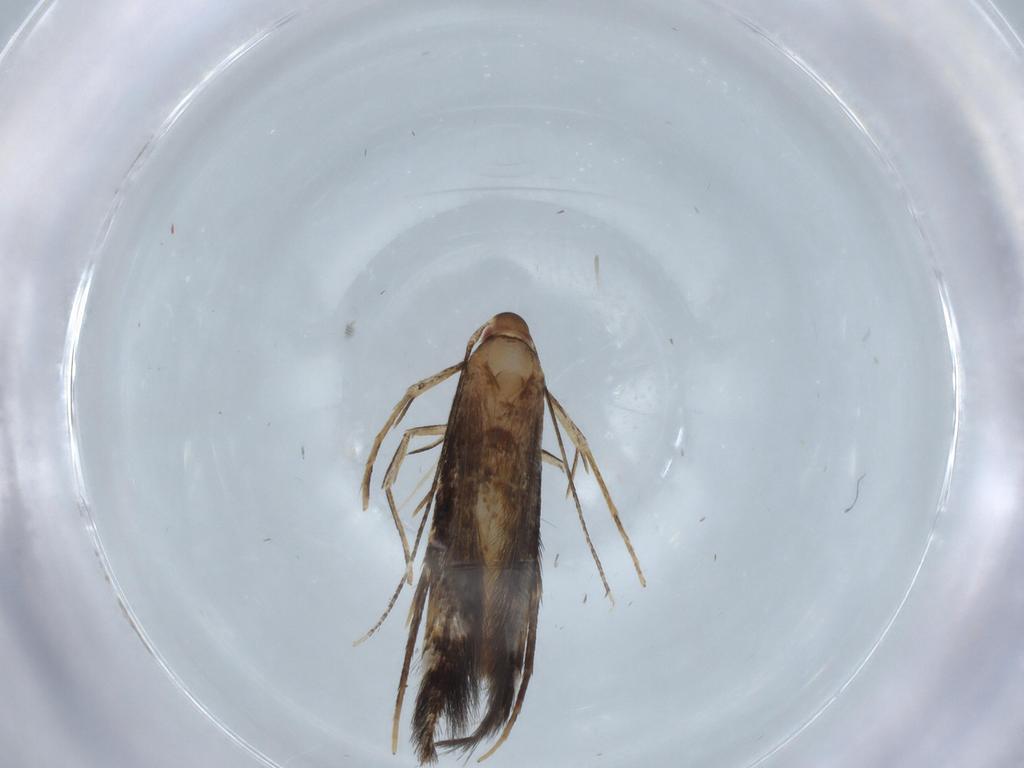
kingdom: Animalia
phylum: Arthropoda
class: Insecta
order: Lepidoptera
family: Cosmopterigidae
